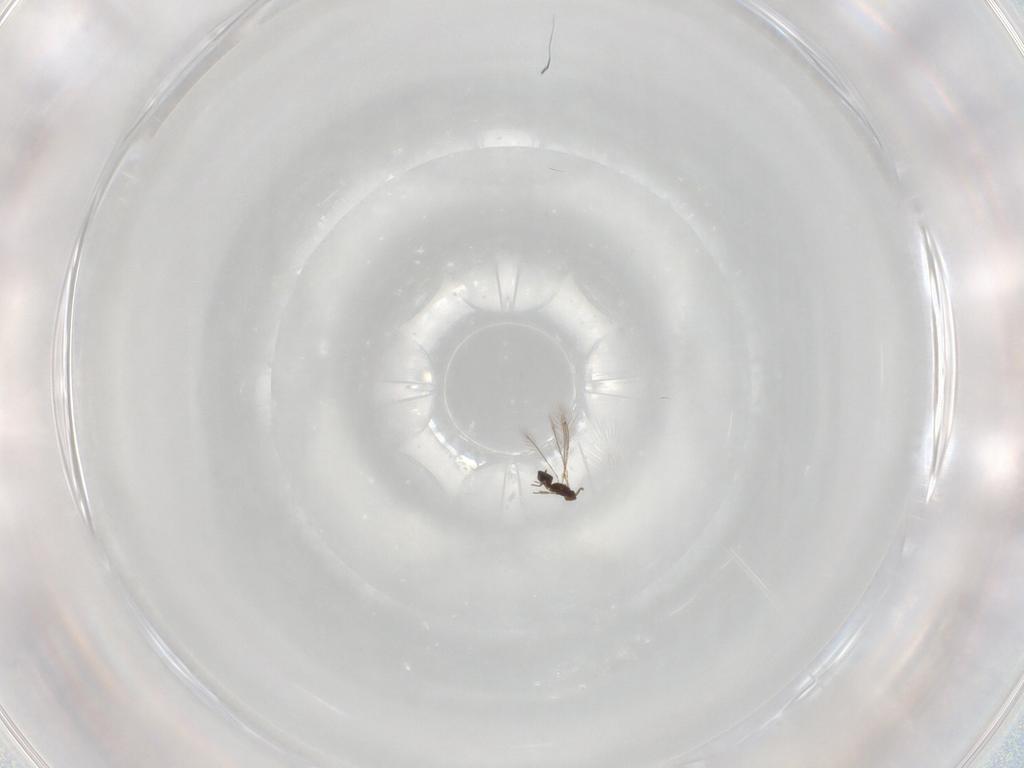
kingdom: Animalia
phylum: Arthropoda
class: Insecta
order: Hymenoptera
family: Mymaridae
